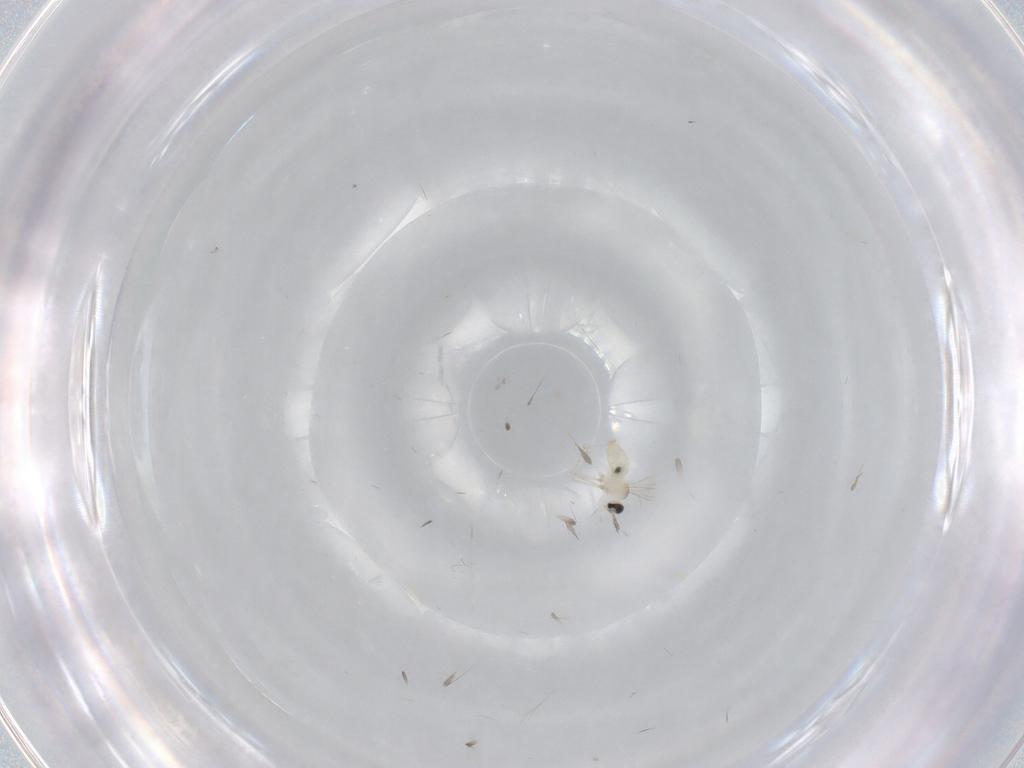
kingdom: Animalia
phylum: Arthropoda
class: Insecta
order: Diptera
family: Cecidomyiidae
